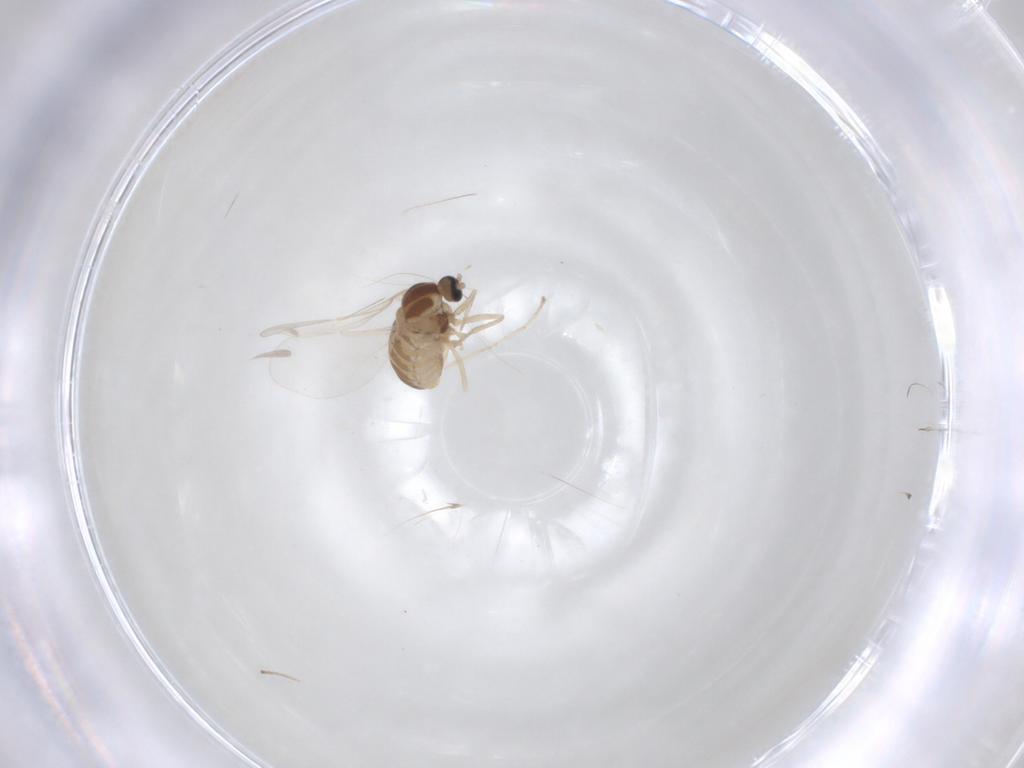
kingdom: Animalia
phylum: Arthropoda
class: Insecta
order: Diptera
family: Cecidomyiidae
